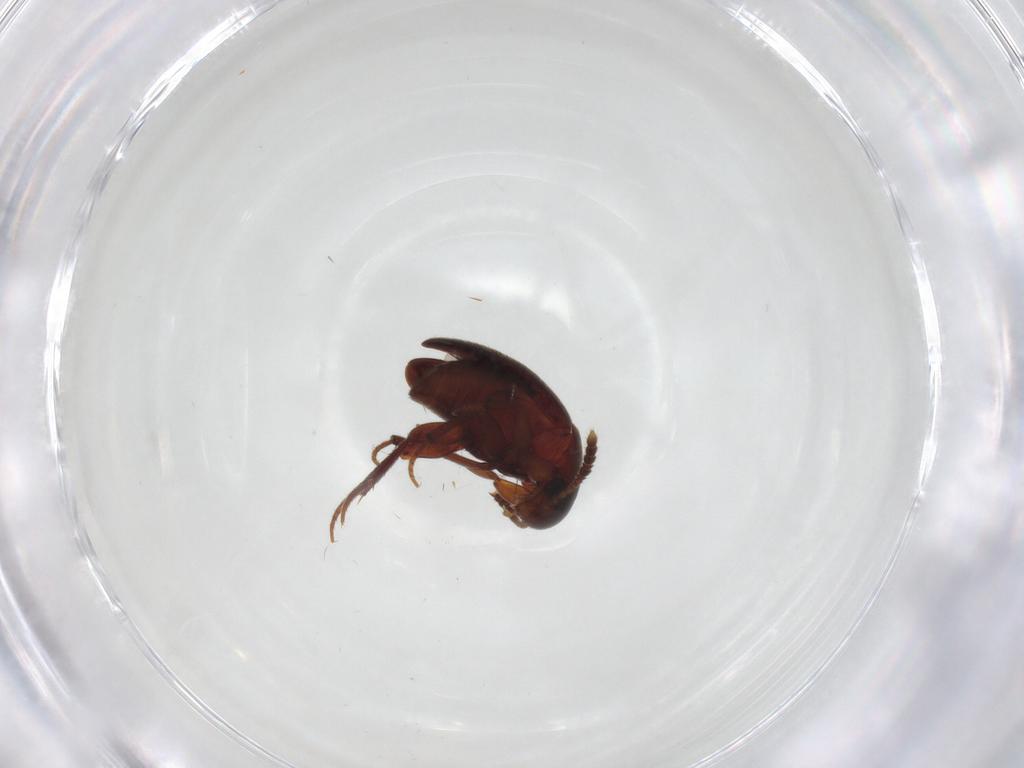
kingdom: Animalia
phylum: Arthropoda
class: Insecta
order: Coleoptera
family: Leiodidae
